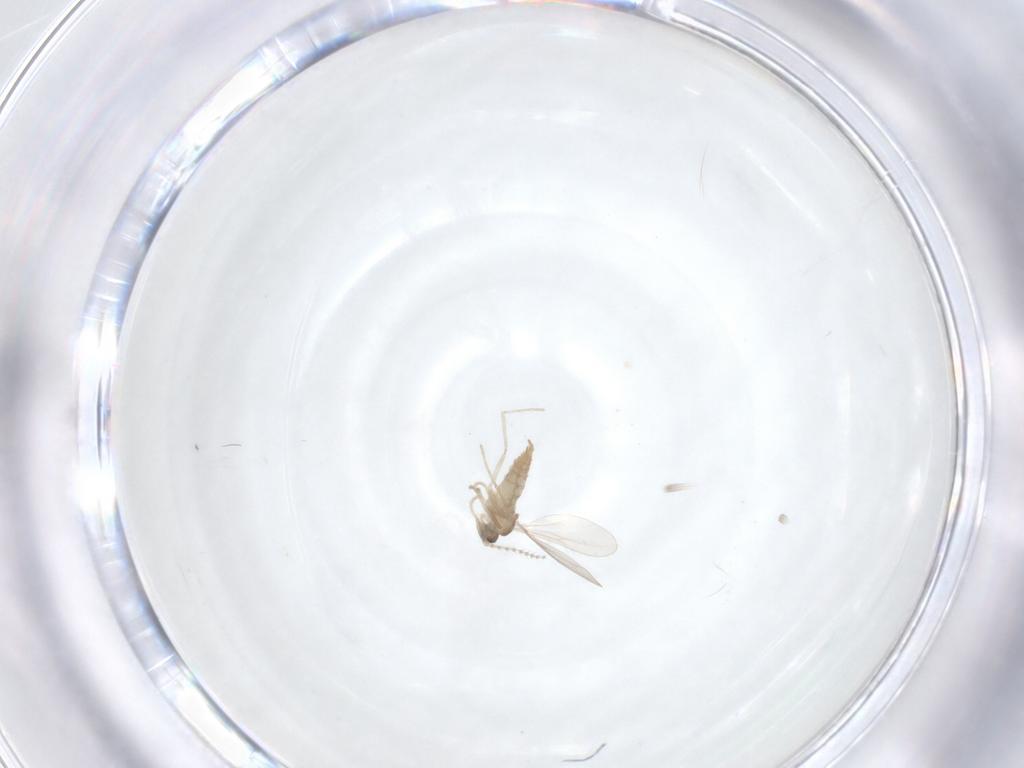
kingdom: Animalia
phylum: Arthropoda
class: Insecta
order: Diptera
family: Cecidomyiidae
